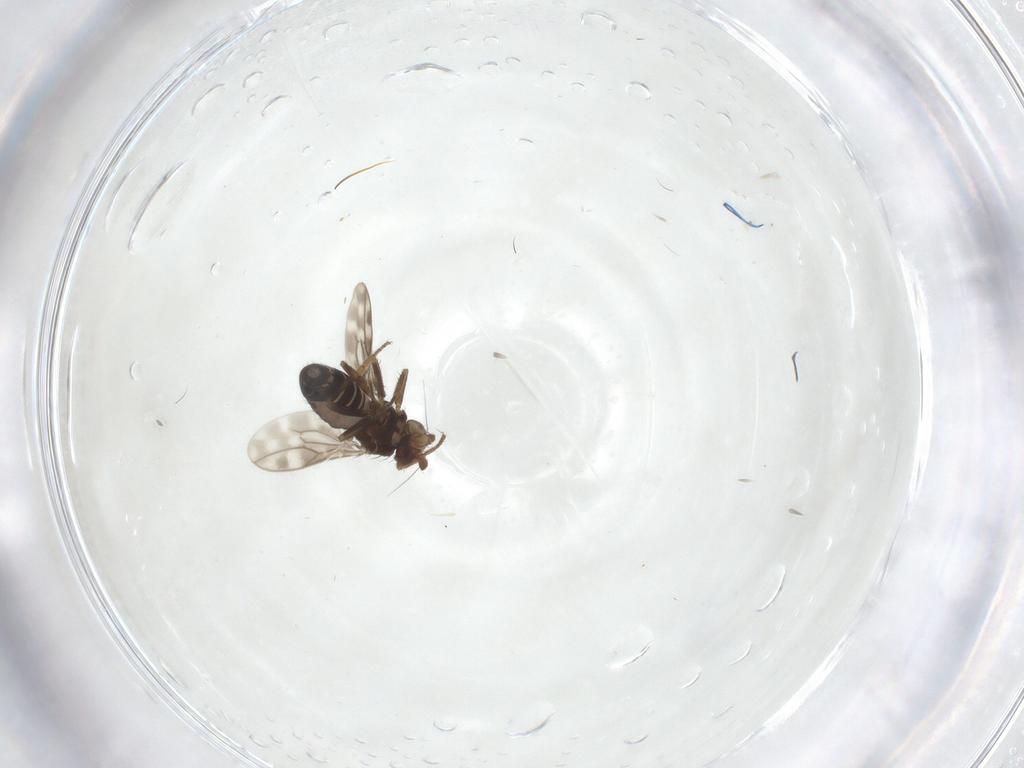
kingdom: Animalia
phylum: Arthropoda
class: Insecta
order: Diptera
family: Sphaeroceridae
